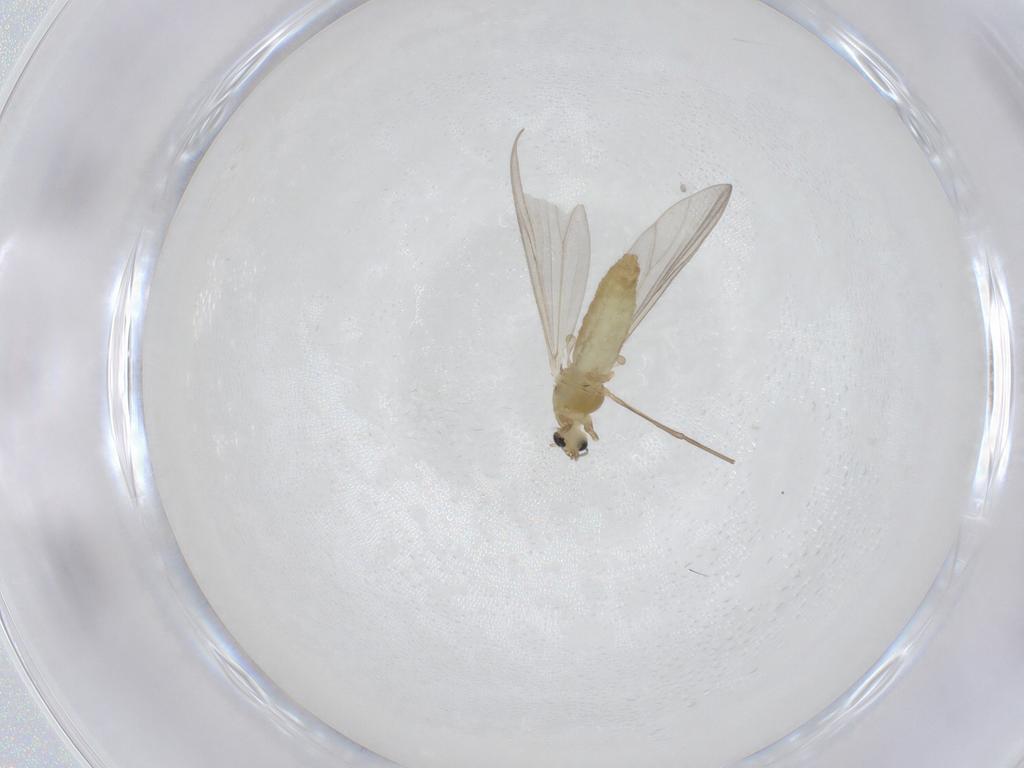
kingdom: Animalia
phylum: Arthropoda
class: Insecta
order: Diptera
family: Chironomidae
